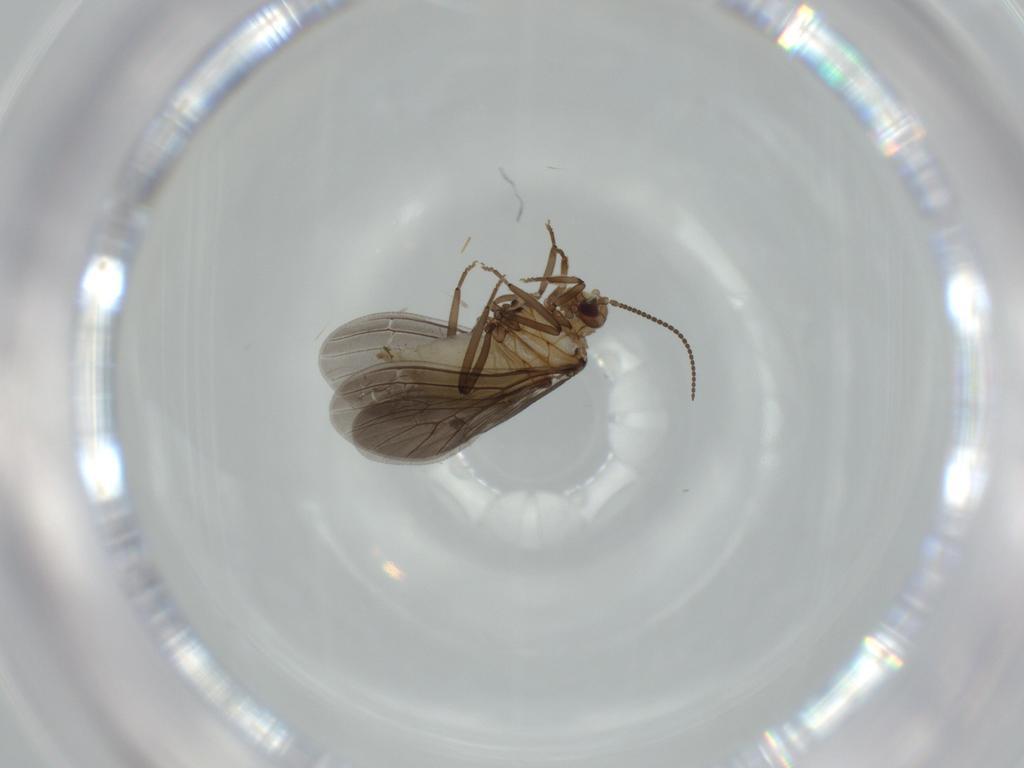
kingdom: Animalia
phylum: Arthropoda
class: Insecta
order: Neuroptera
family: Coniopterygidae
